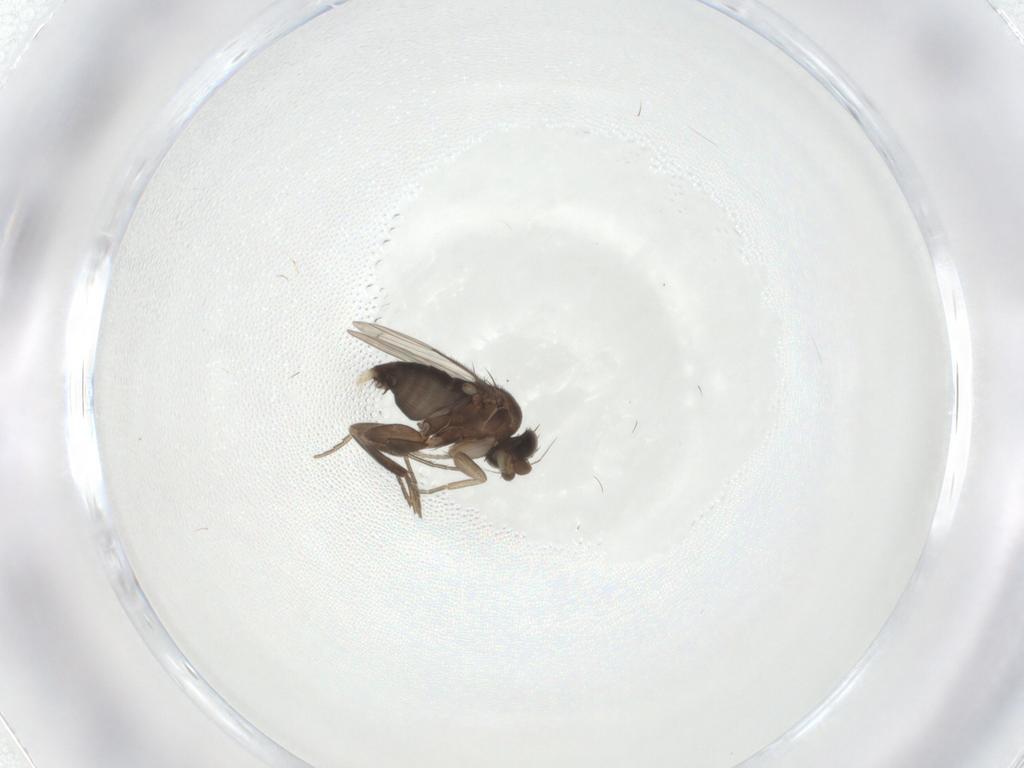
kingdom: Animalia
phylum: Arthropoda
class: Insecta
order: Diptera
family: Phoridae
